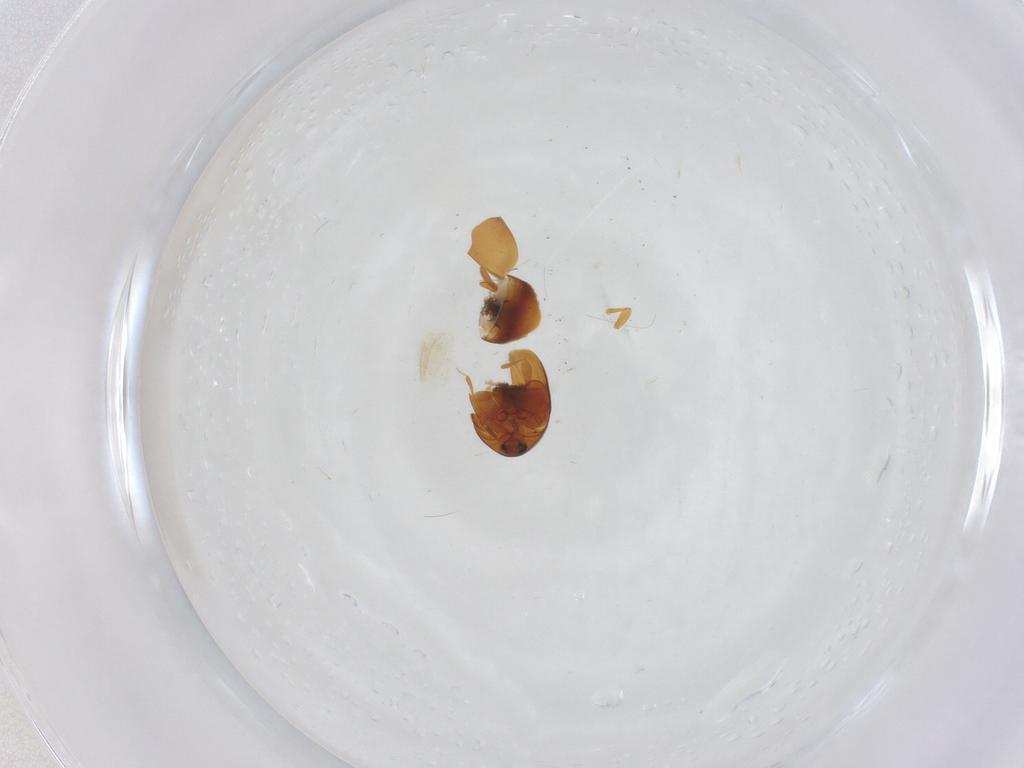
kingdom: Animalia
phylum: Arthropoda
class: Insecta
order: Coleoptera
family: Corylophidae
